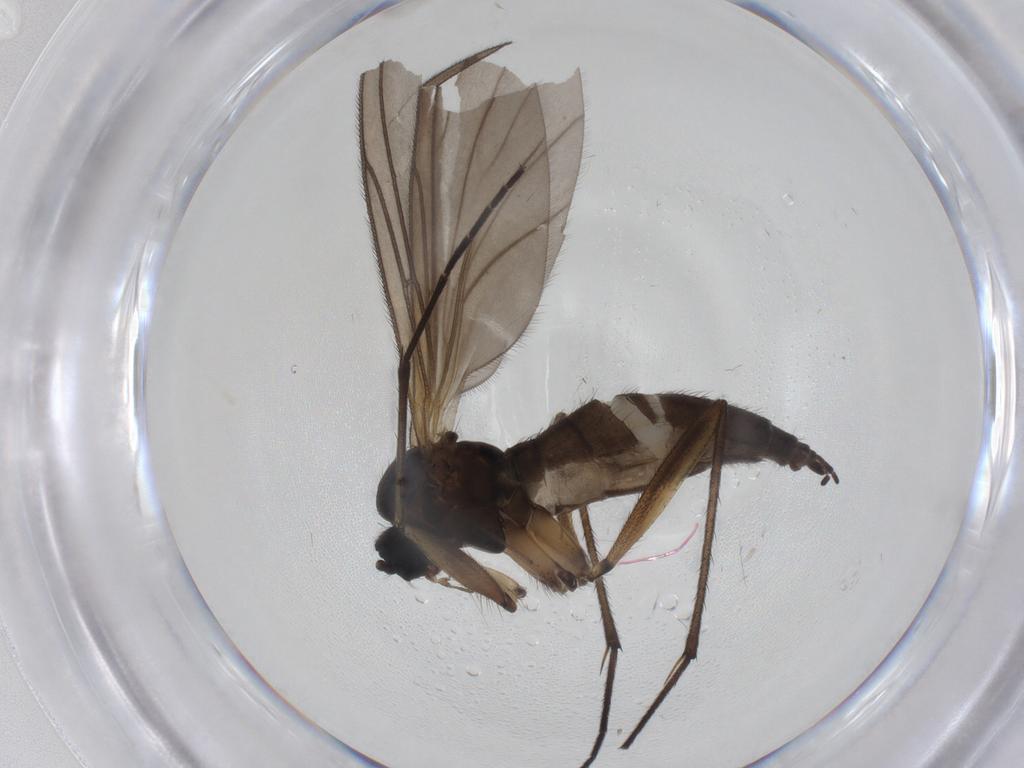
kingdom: Animalia
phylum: Arthropoda
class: Insecta
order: Diptera
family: Sciaridae
